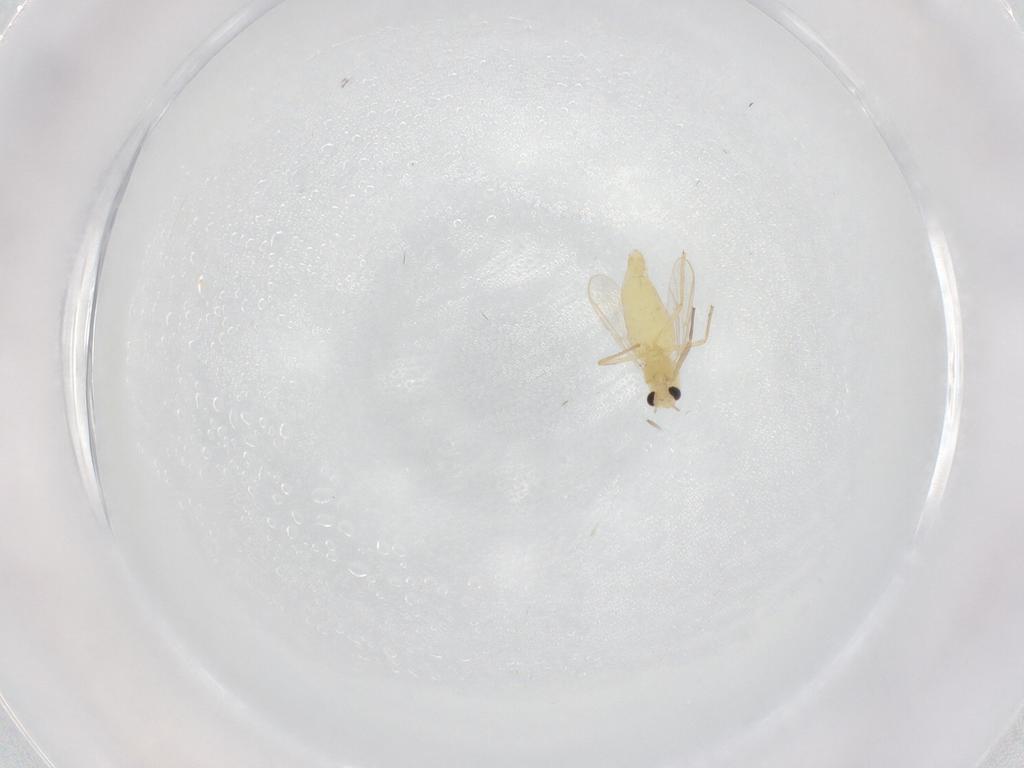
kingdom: Animalia
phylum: Arthropoda
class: Insecta
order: Diptera
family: Chironomidae
